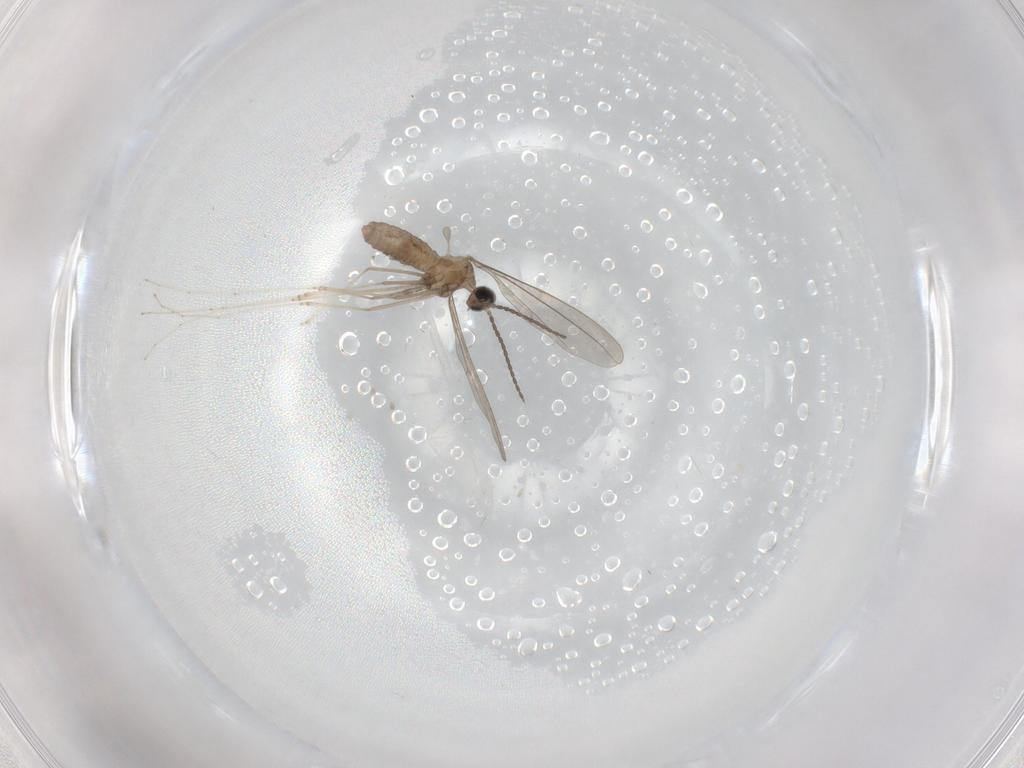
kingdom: Animalia
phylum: Arthropoda
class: Insecta
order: Diptera
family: Cecidomyiidae
